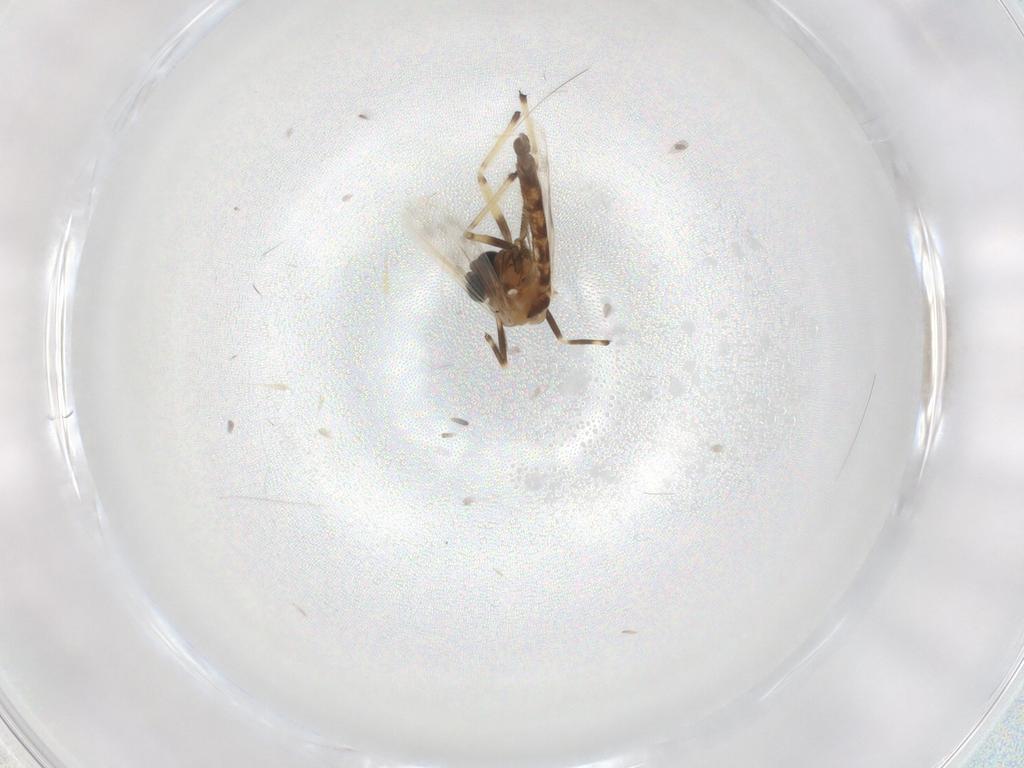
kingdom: Animalia
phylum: Arthropoda
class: Insecta
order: Diptera
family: Chironomidae
